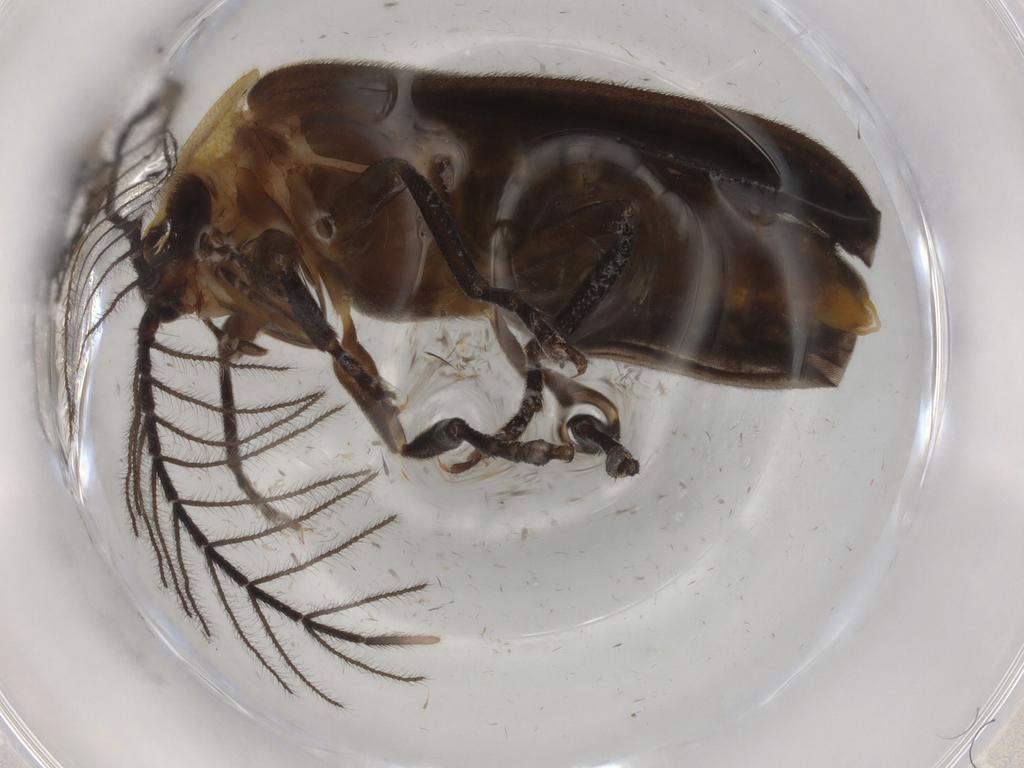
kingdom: Animalia
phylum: Arthropoda
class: Insecta
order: Coleoptera
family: Chrysomelidae
